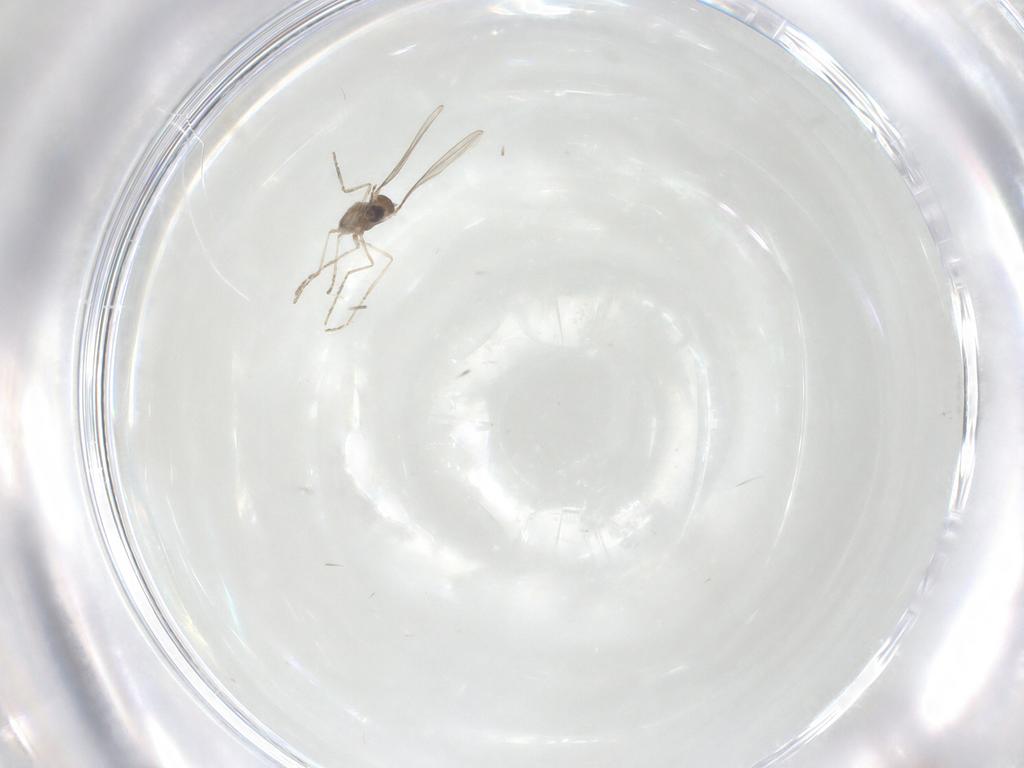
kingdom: Animalia
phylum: Arthropoda
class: Insecta
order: Diptera
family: Cecidomyiidae
